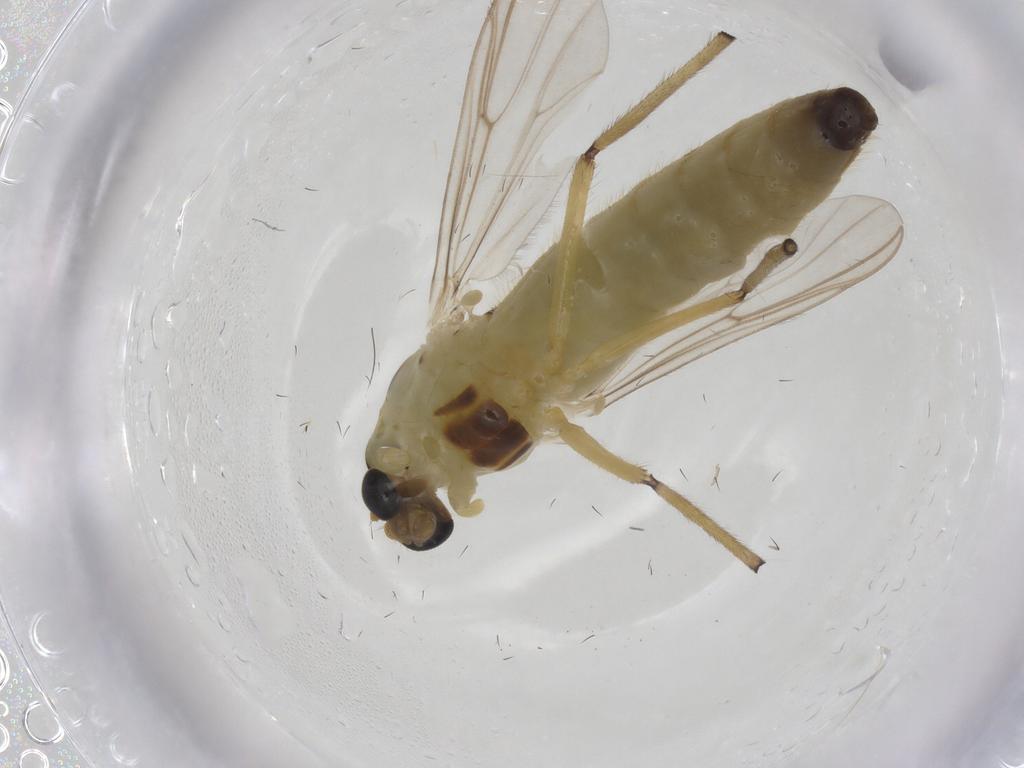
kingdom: Animalia
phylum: Arthropoda
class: Insecta
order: Diptera
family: Chironomidae
